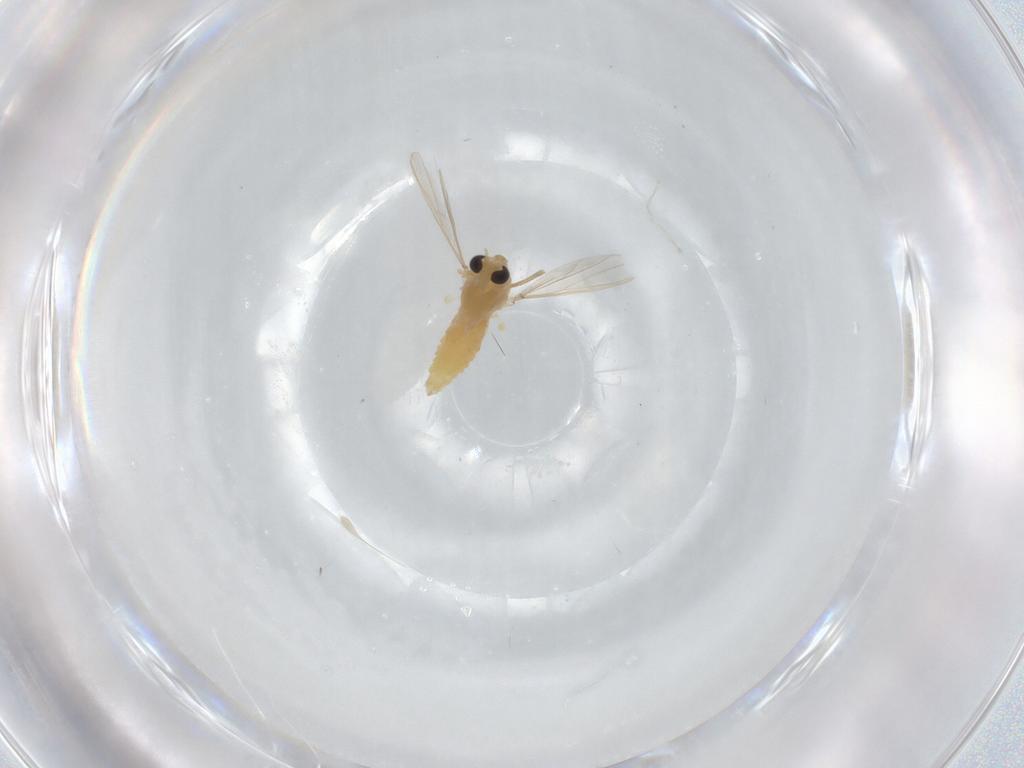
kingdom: Animalia
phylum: Arthropoda
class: Insecta
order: Diptera
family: Chironomidae
